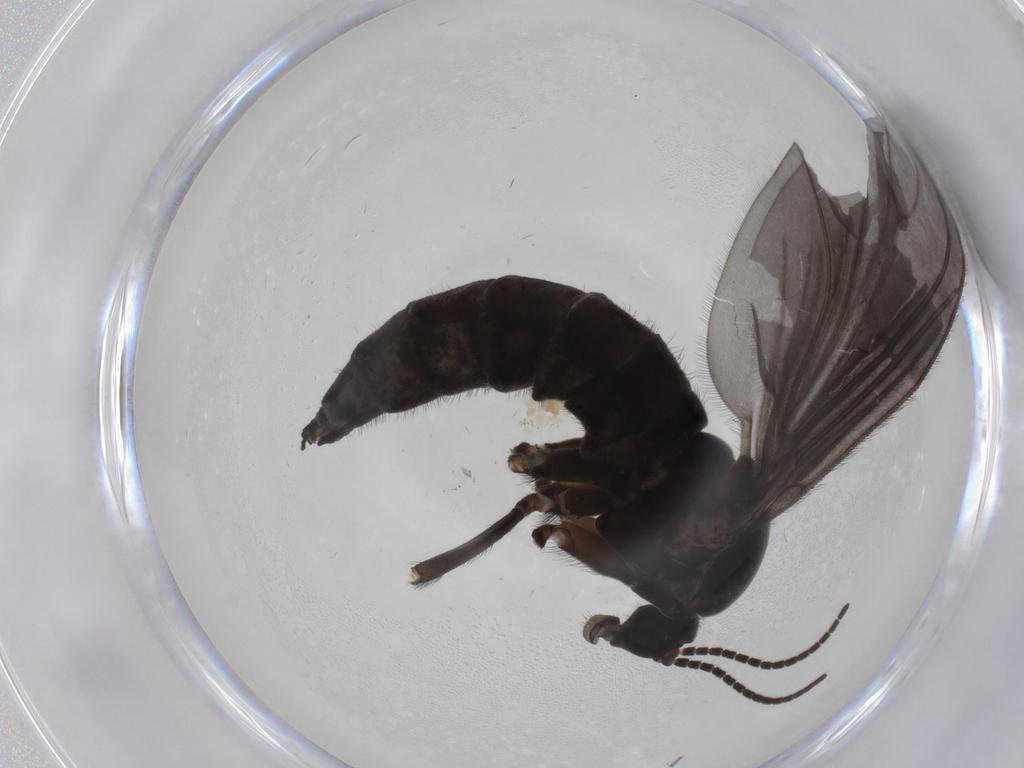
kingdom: Animalia
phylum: Arthropoda
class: Insecta
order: Diptera
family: Sciaridae
